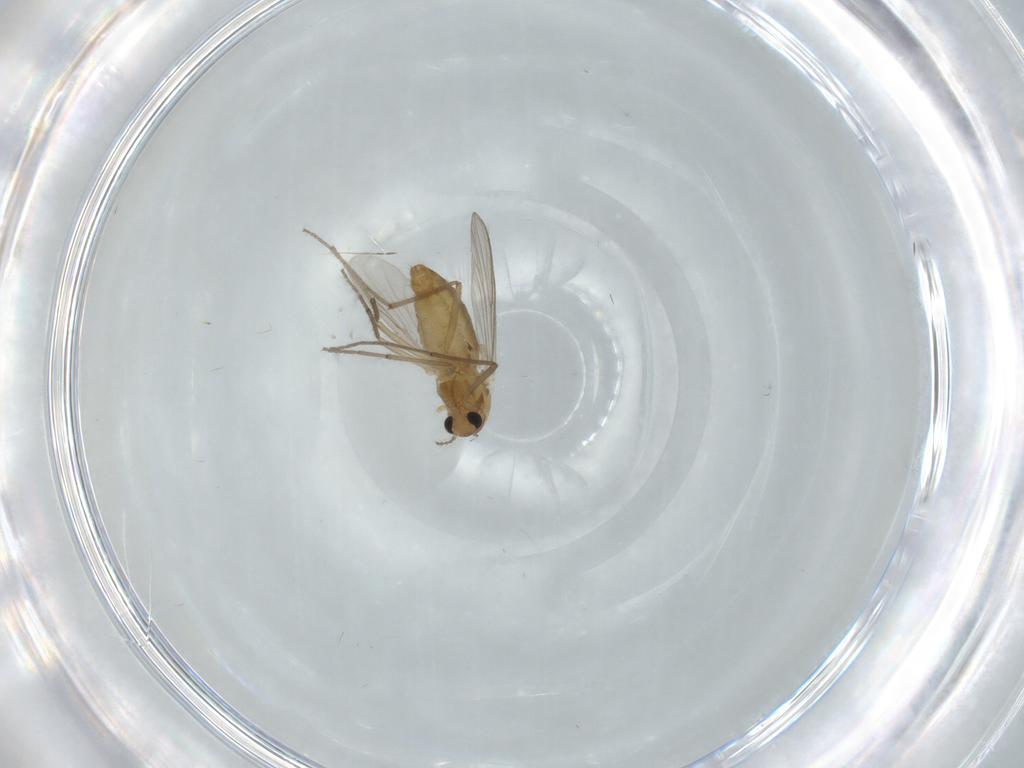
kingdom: Animalia
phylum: Arthropoda
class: Insecta
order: Diptera
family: Chironomidae
